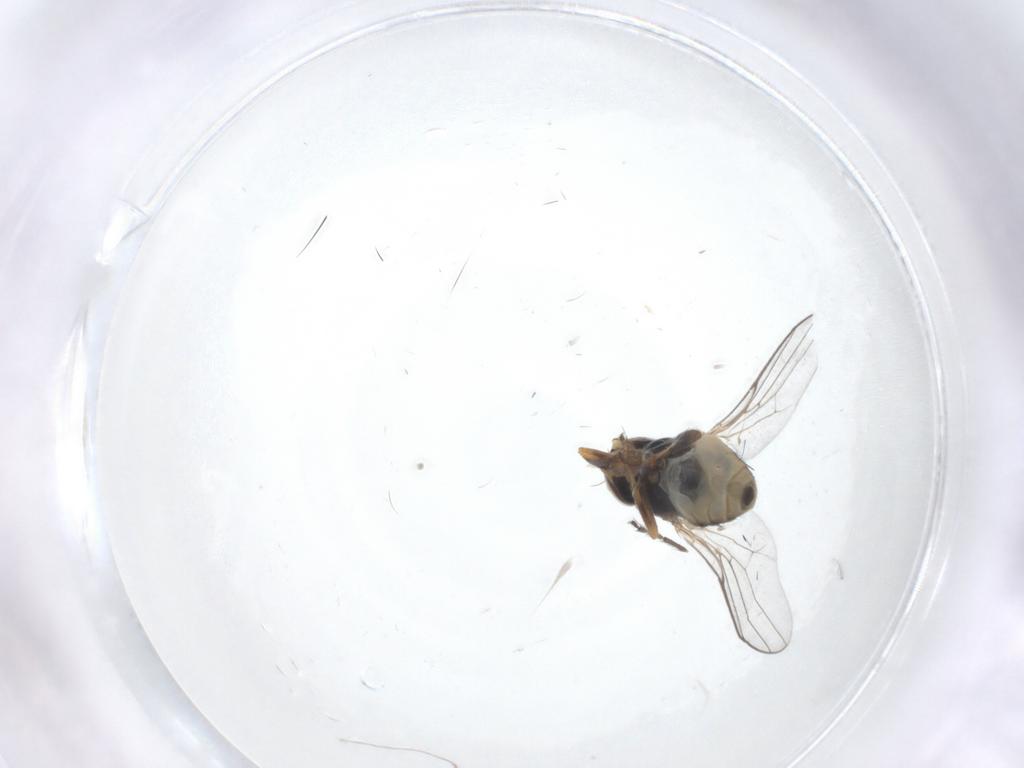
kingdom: Animalia
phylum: Arthropoda
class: Insecta
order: Diptera
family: Chloropidae
